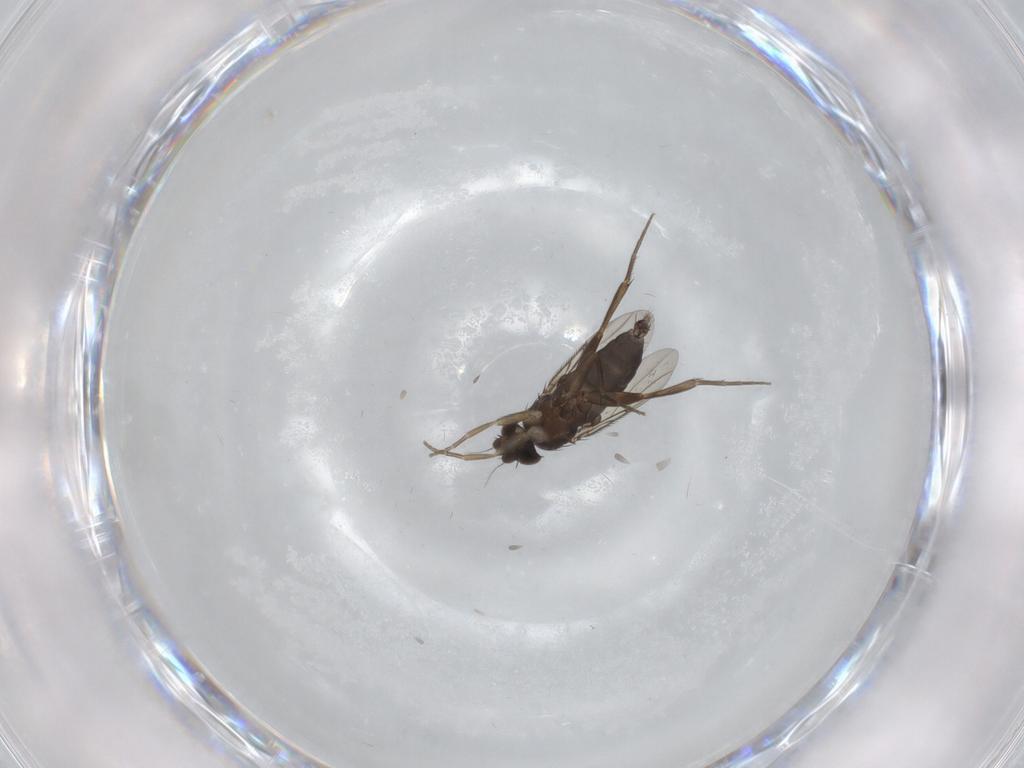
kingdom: Animalia
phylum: Arthropoda
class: Insecta
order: Diptera
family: Phoridae
